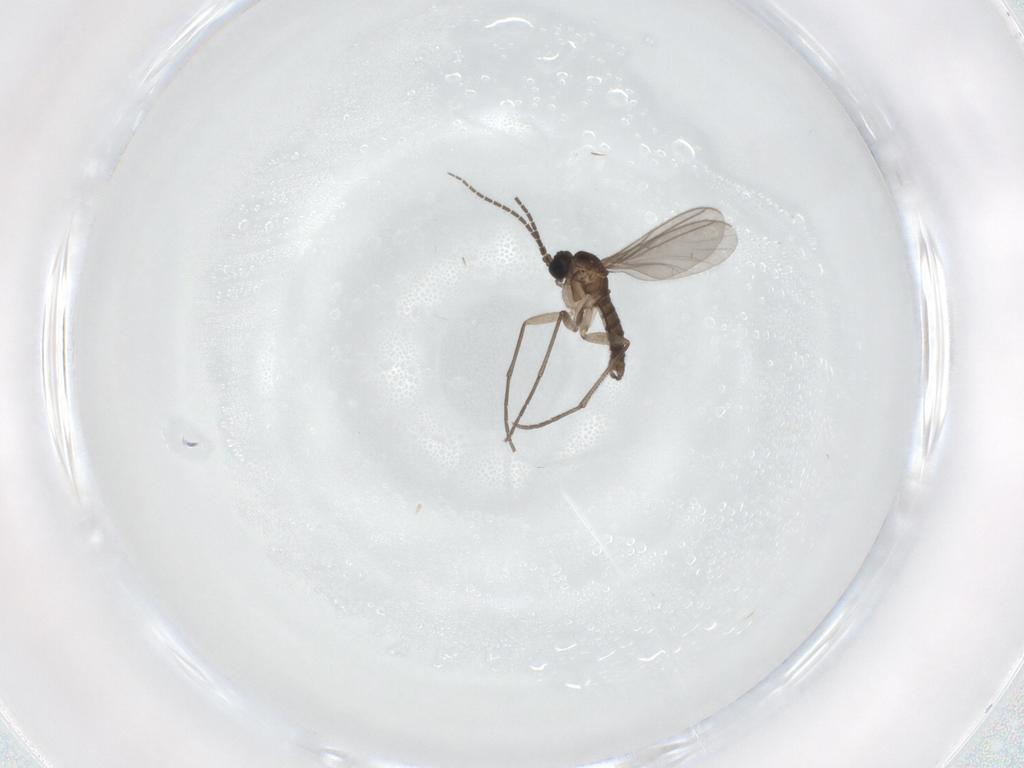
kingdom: Animalia
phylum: Arthropoda
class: Insecta
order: Diptera
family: Sciaridae
